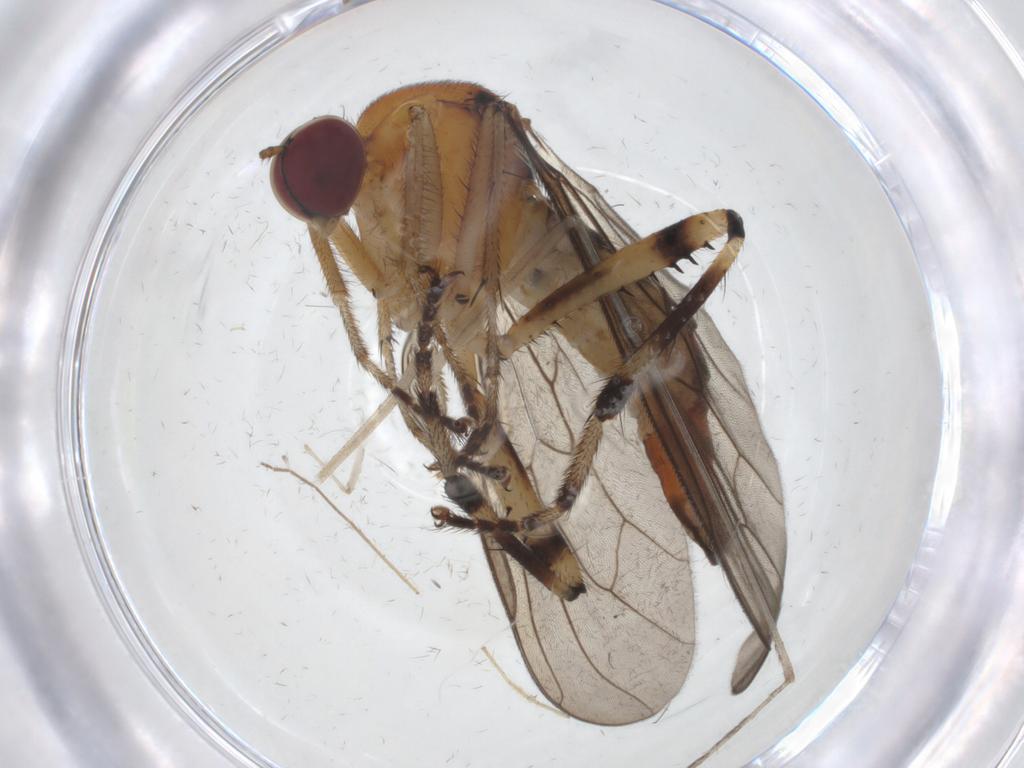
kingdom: Animalia
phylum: Arthropoda
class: Insecta
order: Diptera
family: Hybotidae
